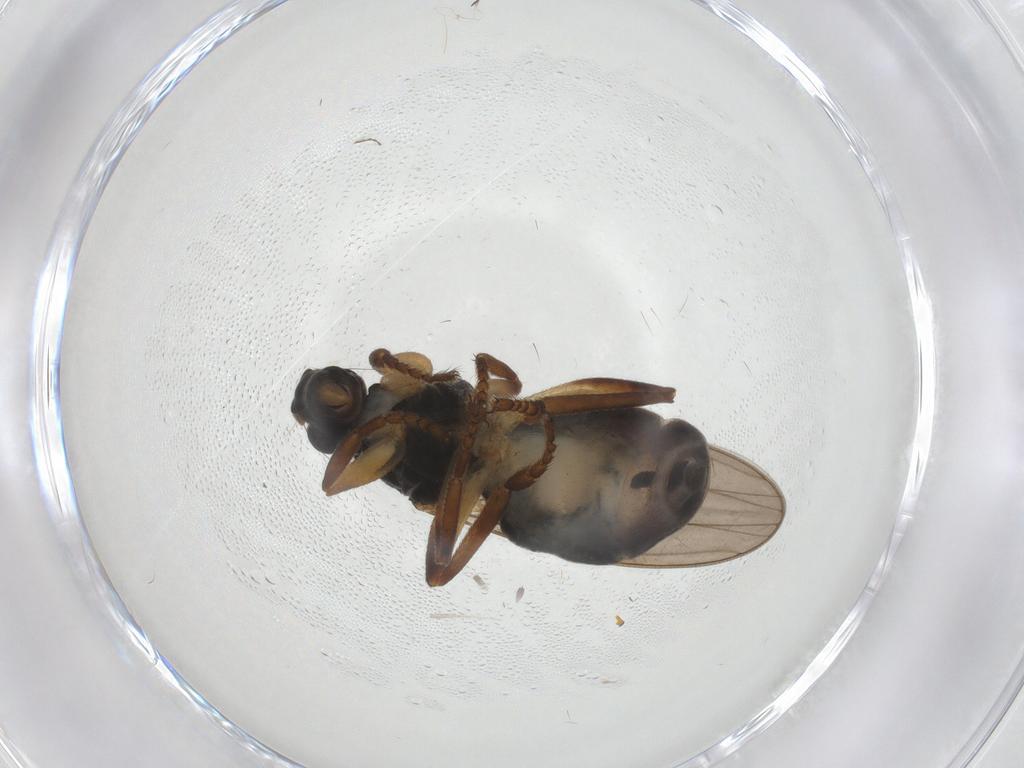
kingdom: Animalia
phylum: Arthropoda
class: Insecta
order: Diptera
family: Sphaeroceridae
